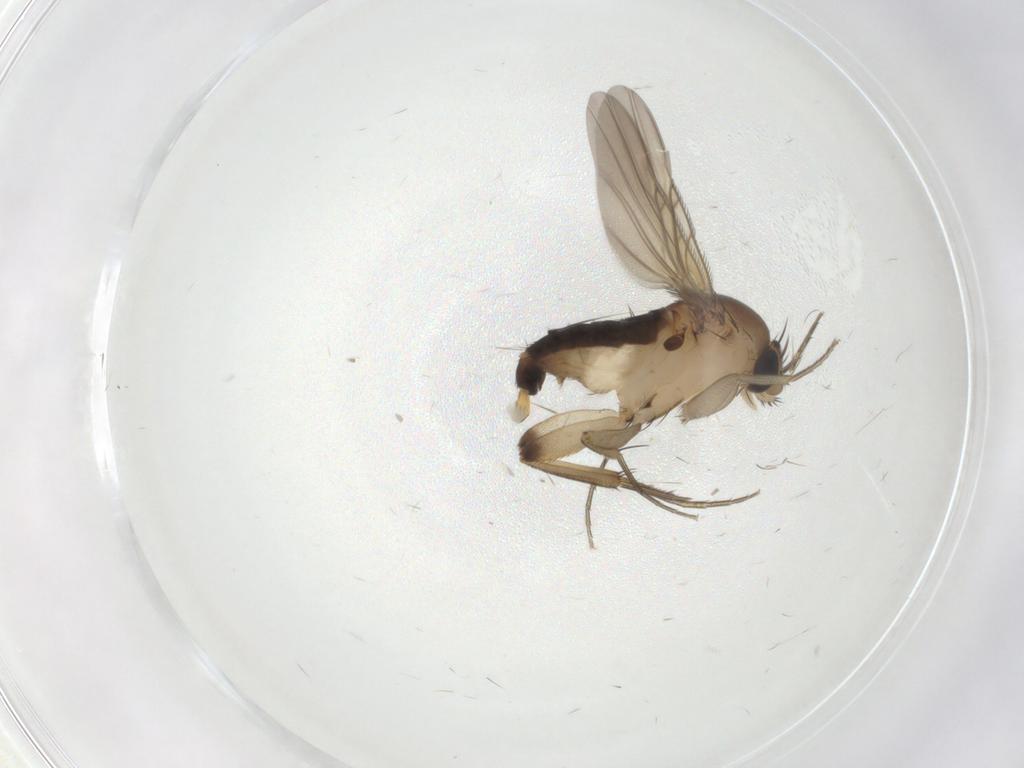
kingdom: Animalia
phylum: Arthropoda
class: Insecta
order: Diptera
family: Phoridae
